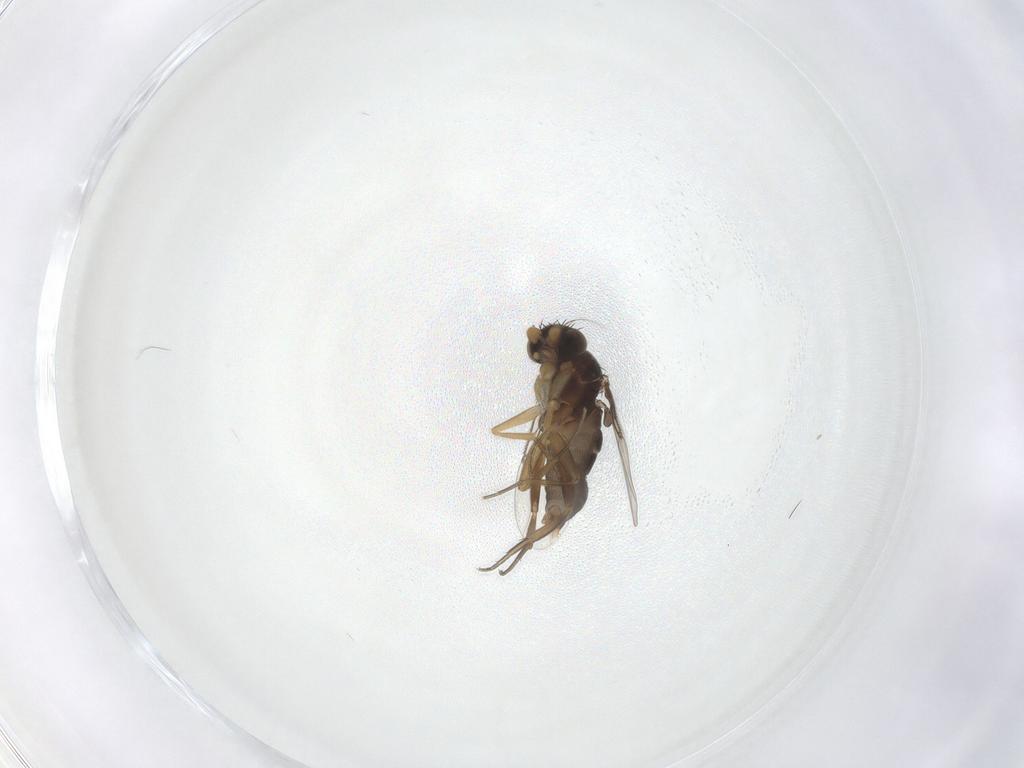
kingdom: Animalia
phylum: Arthropoda
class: Insecta
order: Diptera
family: Phoridae
